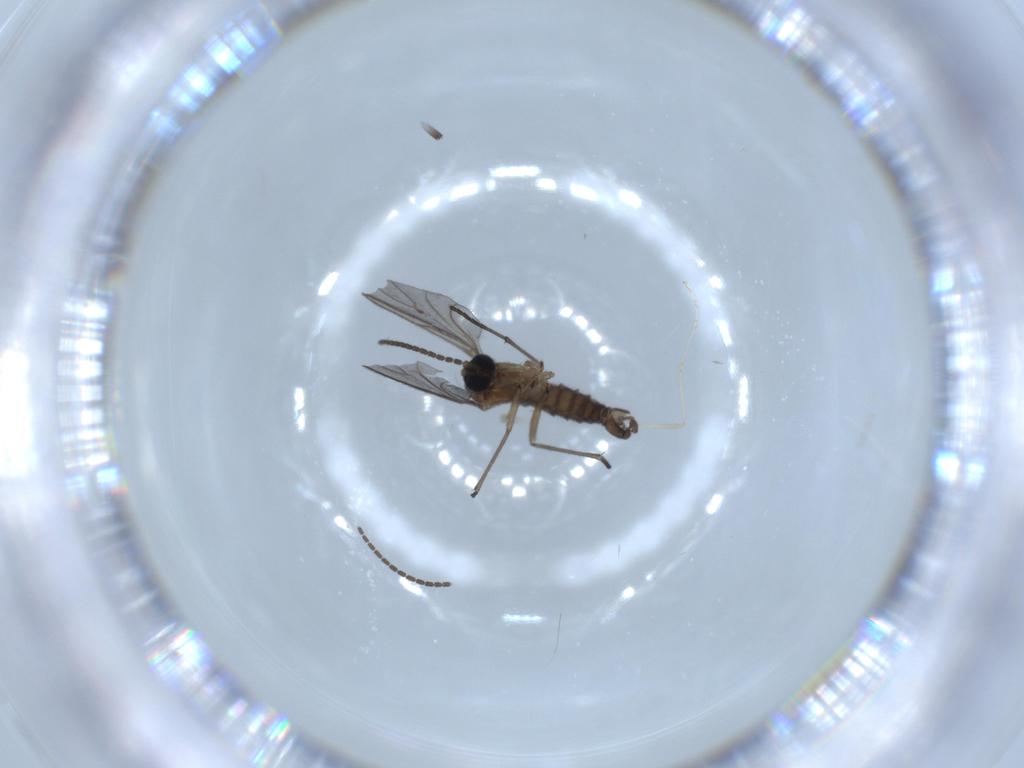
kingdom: Animalia
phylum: Arthropoda
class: Insecta
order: Diptera
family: Sciaridae
